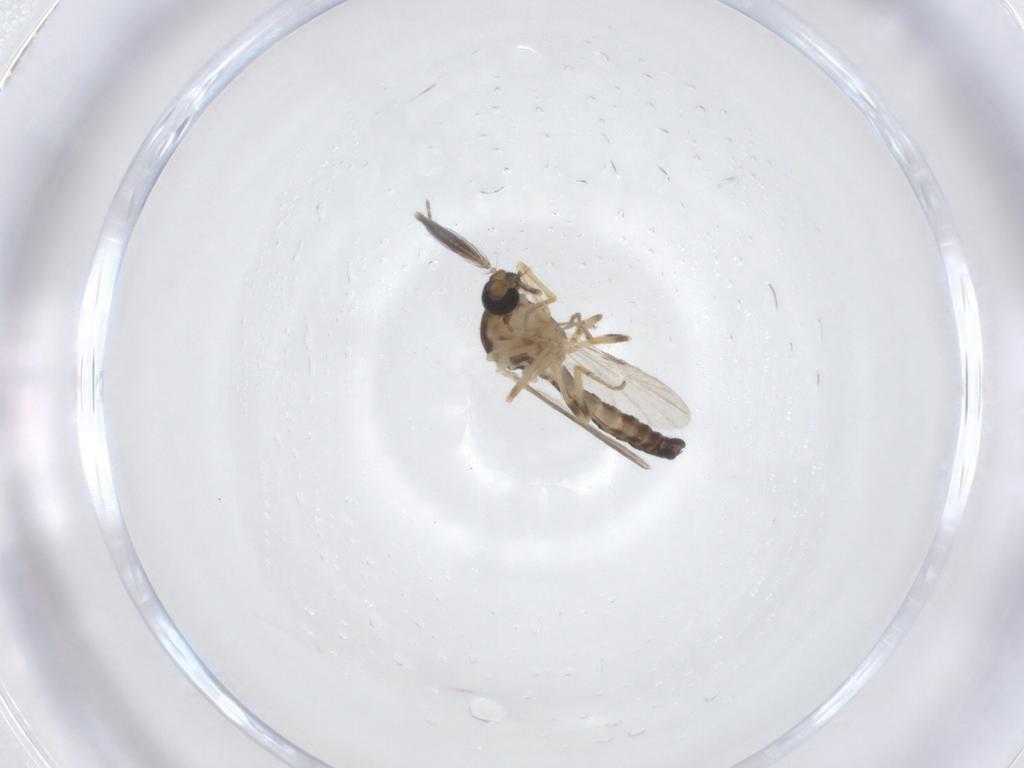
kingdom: Animalia
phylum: Arthropoda
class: Insecta
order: Diptera
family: Ceratopogonidae
